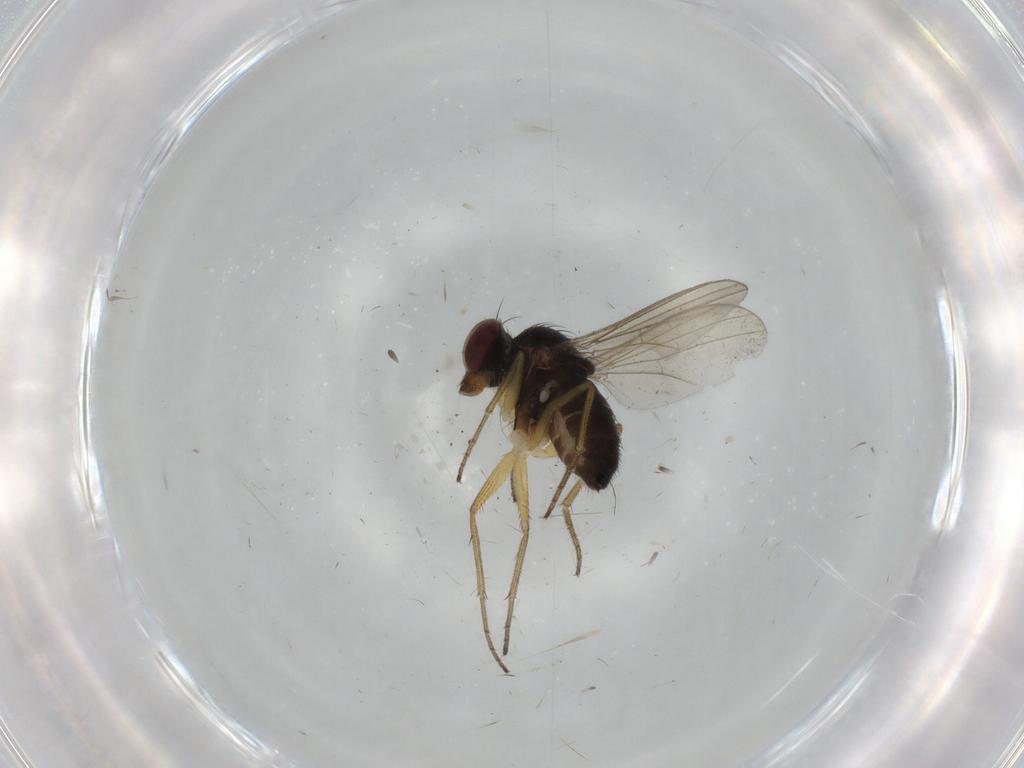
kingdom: Animalia
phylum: Arthropoda
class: Insecta
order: Diptera
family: Dolichopodidae
